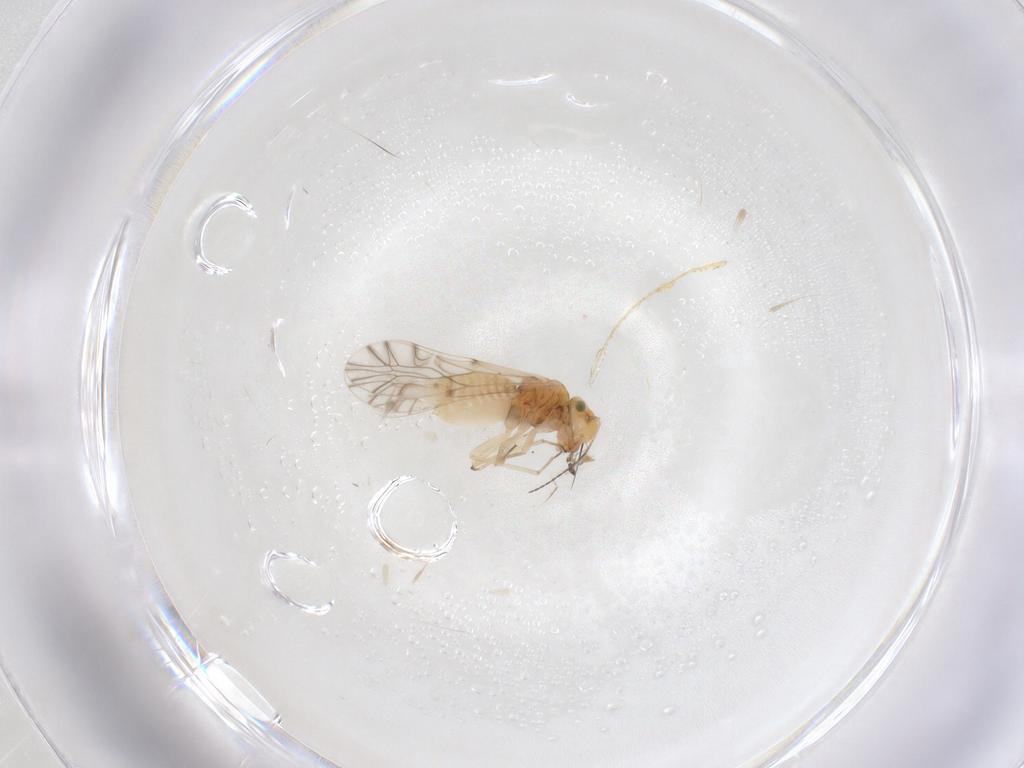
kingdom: Animalia
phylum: Arthropoda
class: Insecta
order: Psocodea
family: Lachesillidae
